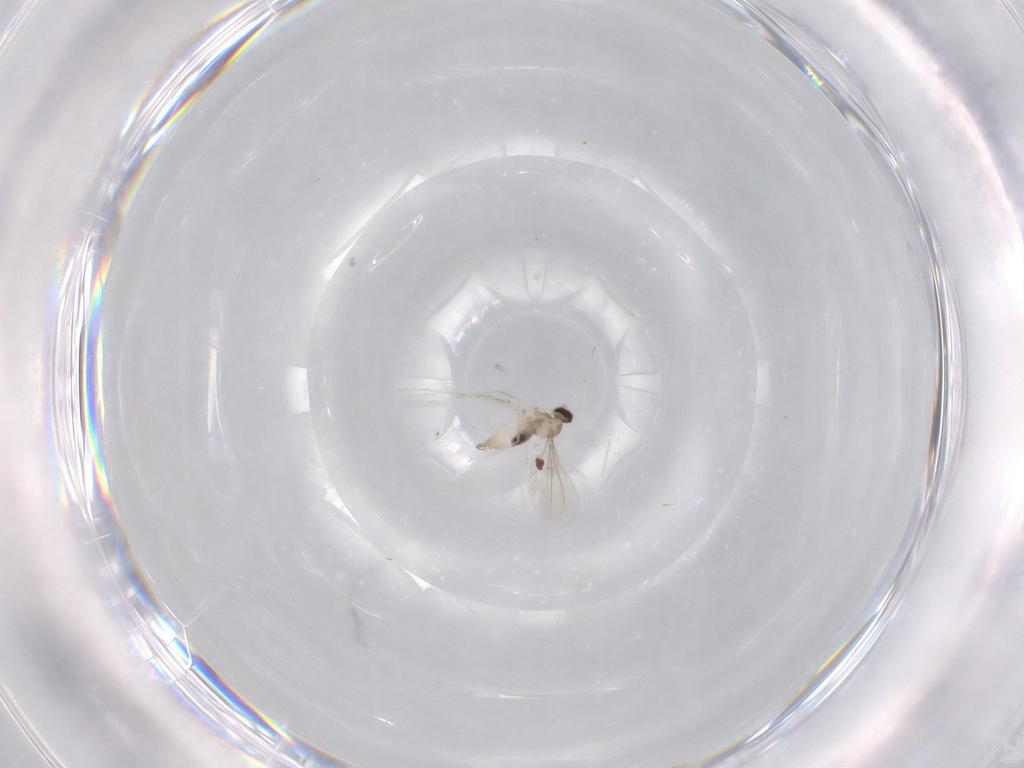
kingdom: Animalia
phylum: Arthropoda
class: Insecta
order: Diptera
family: Cecidomyiidae
